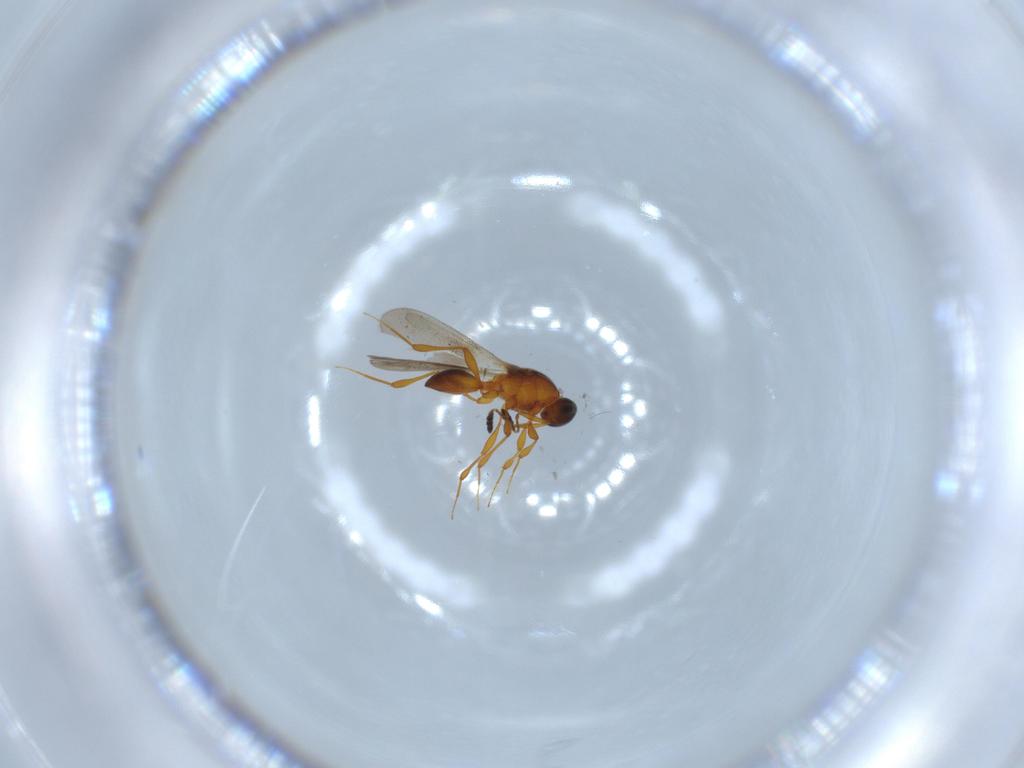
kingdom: Animalia
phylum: Arthropoda
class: Insecta
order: Hymenoptera
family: Platygastridae
